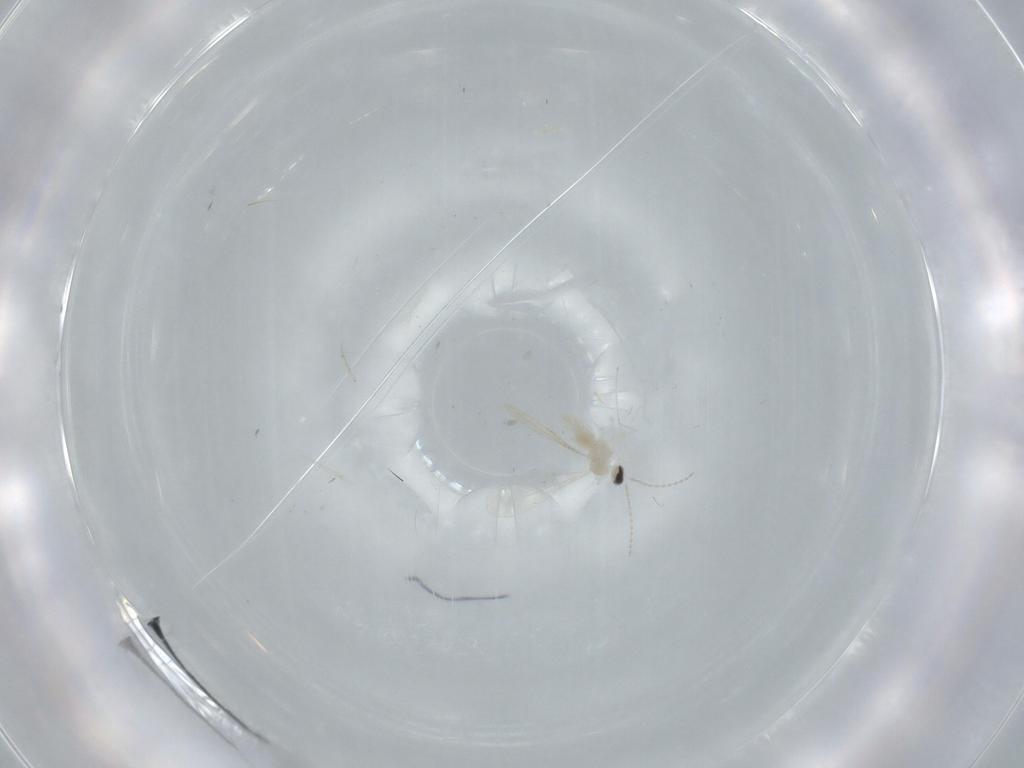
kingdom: Animalia
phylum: Arthropoda
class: Insecta
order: Diptera
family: Dolichopodidae
